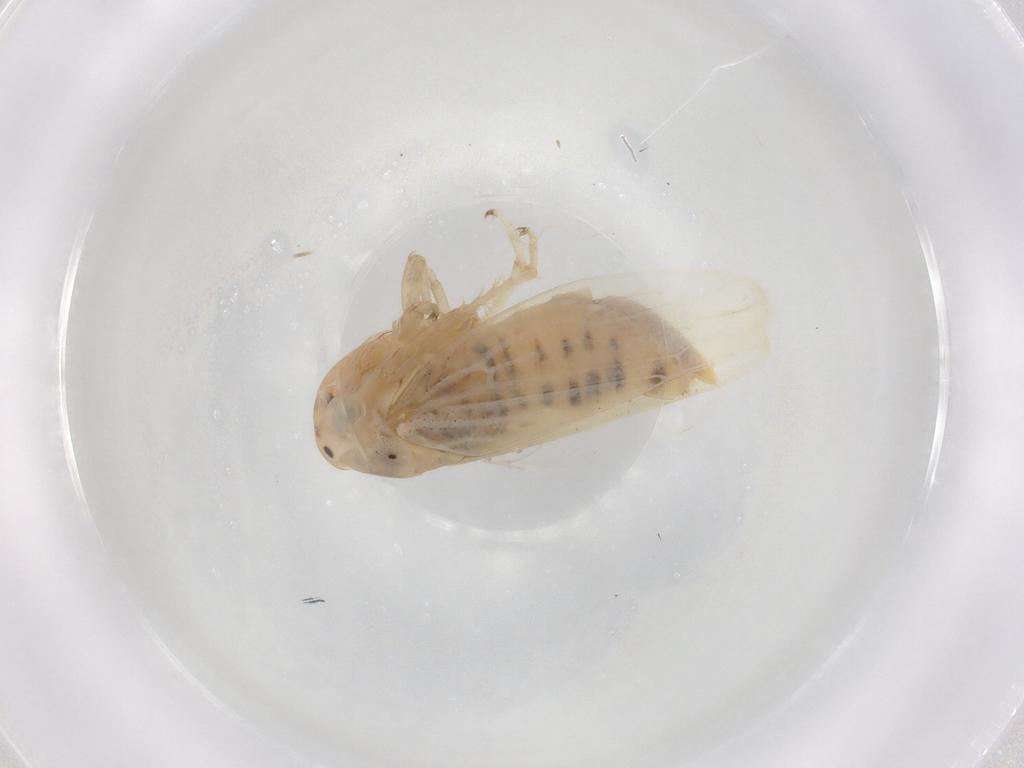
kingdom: Animalia
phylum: Arthropoda
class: Insecta
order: Hemiptera
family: Cicadellidae
